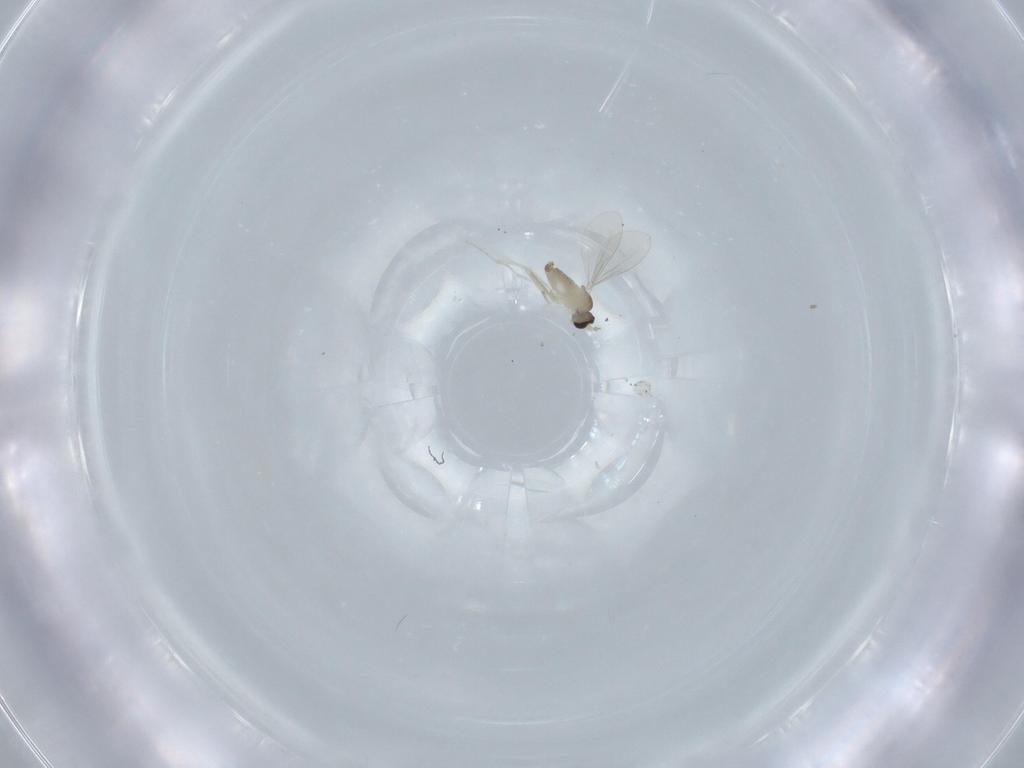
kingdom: Animalia
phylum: Arthropoda
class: Insecta
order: Diptera
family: Cecidomyiidae
